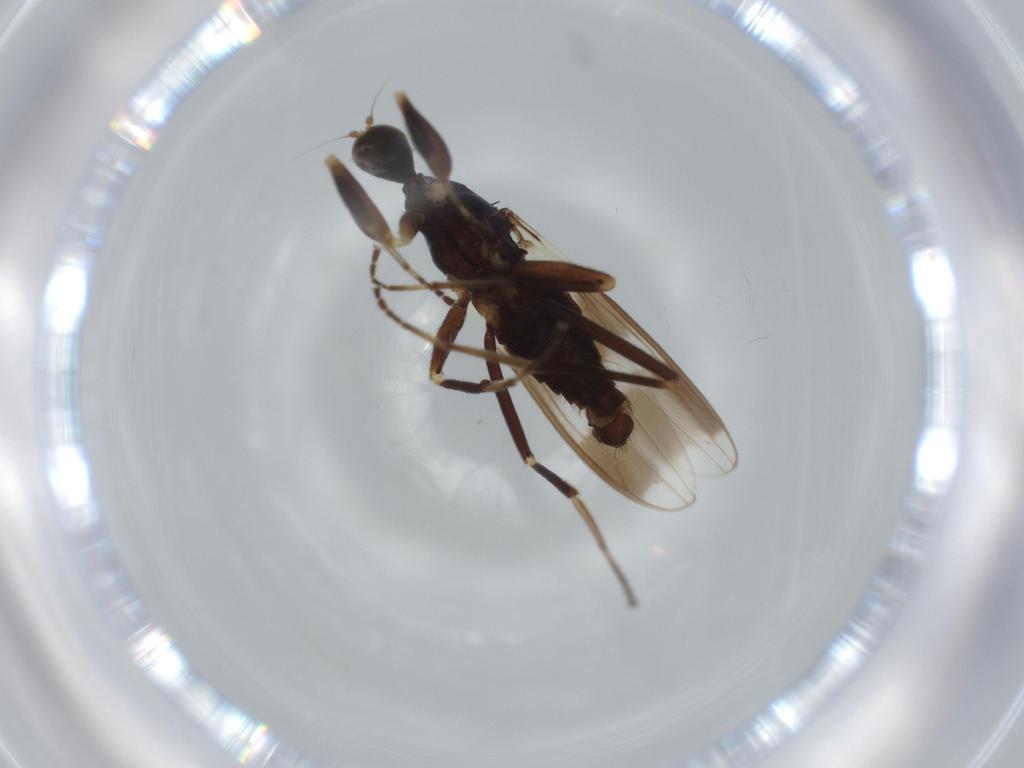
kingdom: Animalia
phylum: Arthropoda
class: Insecta
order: Diptera
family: Hybotidae
